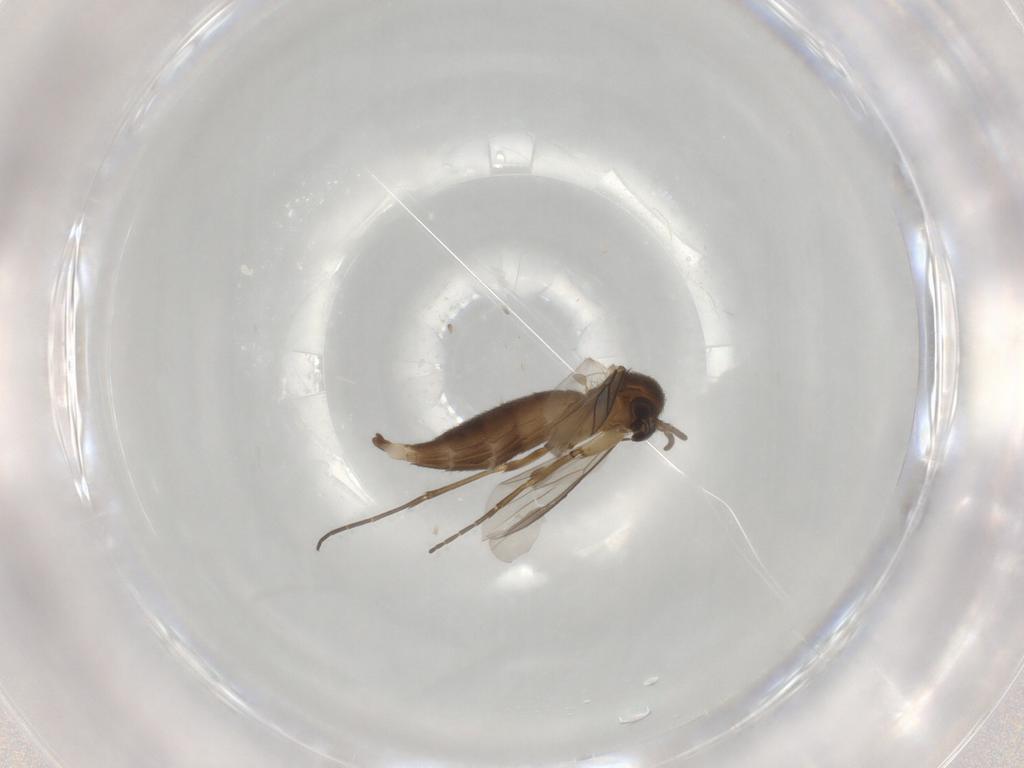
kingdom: Animalia
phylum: Arthropoda
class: Insecta
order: Diptera
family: Mycetophilidae
